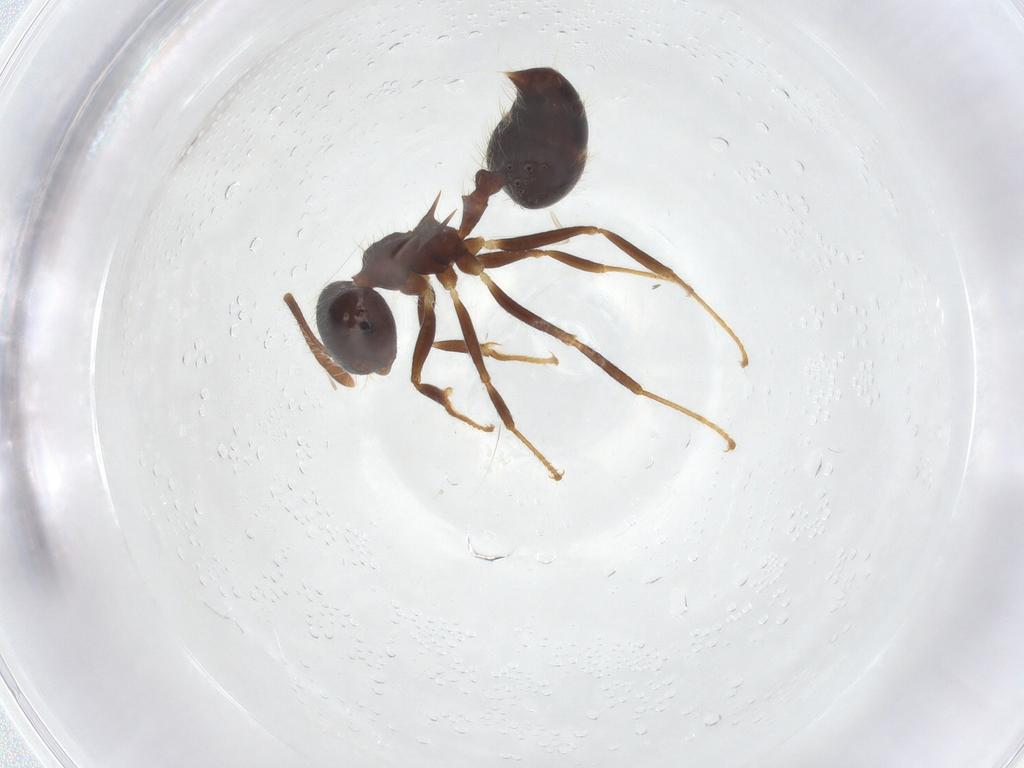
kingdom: Animalia
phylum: Arthropoda
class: Insecta
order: Hymenoptera
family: Formicidae
